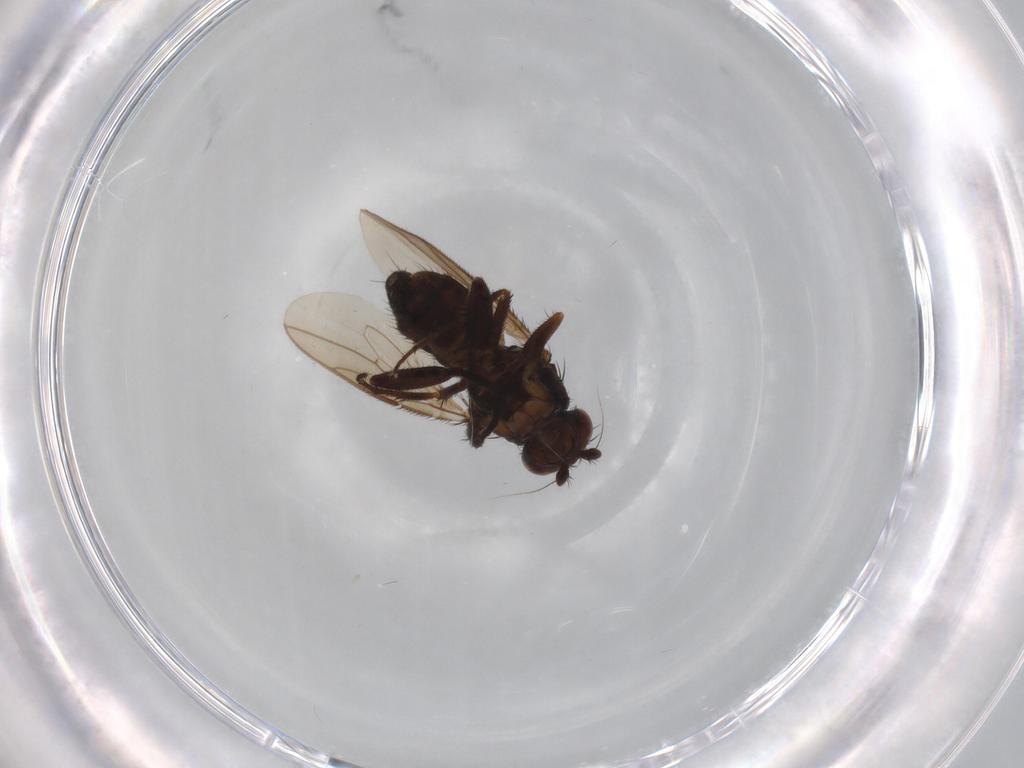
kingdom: Animalia
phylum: Arthropoda
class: Insecta
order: Diptera
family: Sphaeroceridae
